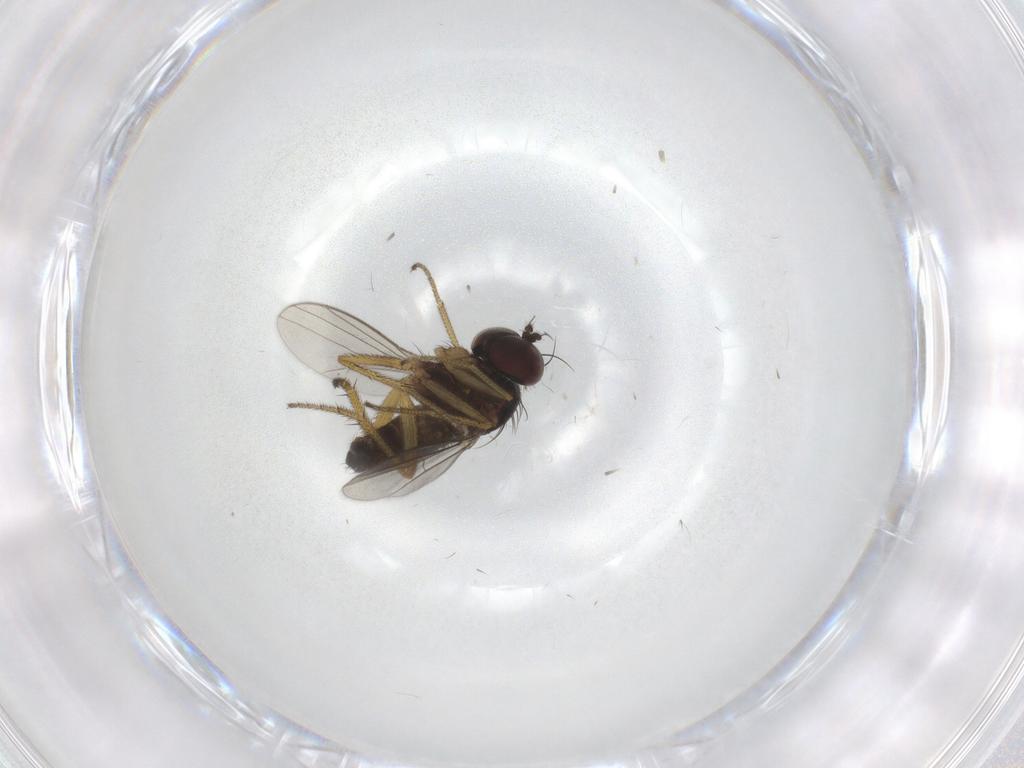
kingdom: Animalia
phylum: Arthropoda
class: Insecta
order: Diptera
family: Dolichopodidae
